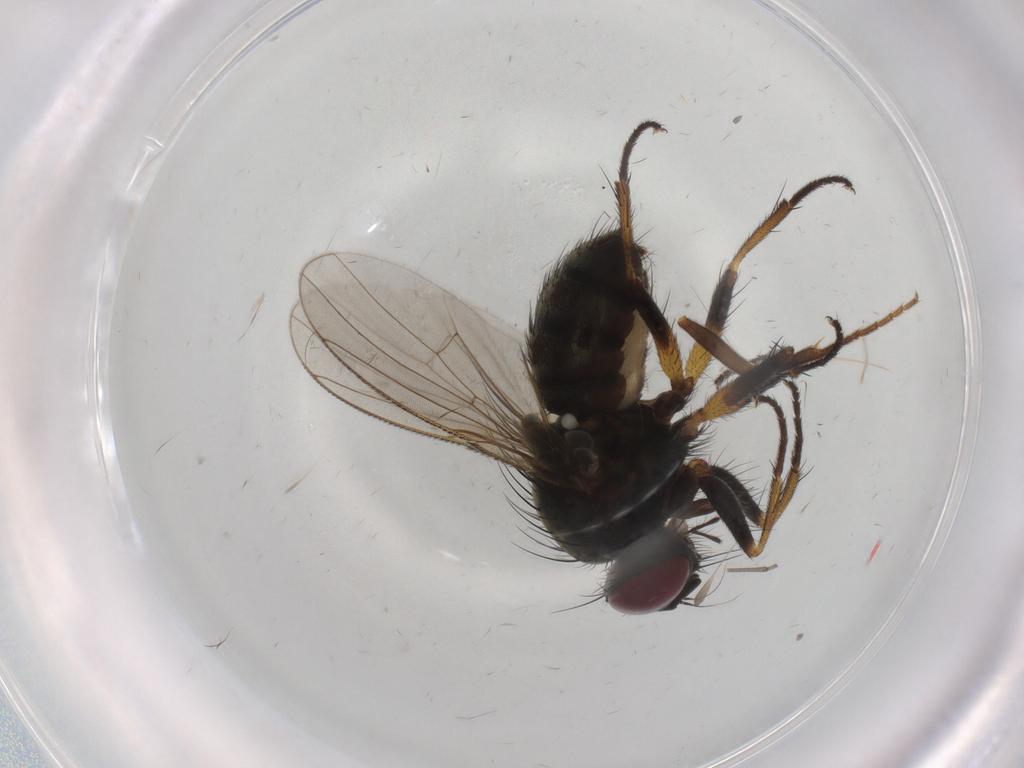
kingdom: Animalia
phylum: Arthropoda
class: Insecta
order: Diptera
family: Muscidae
